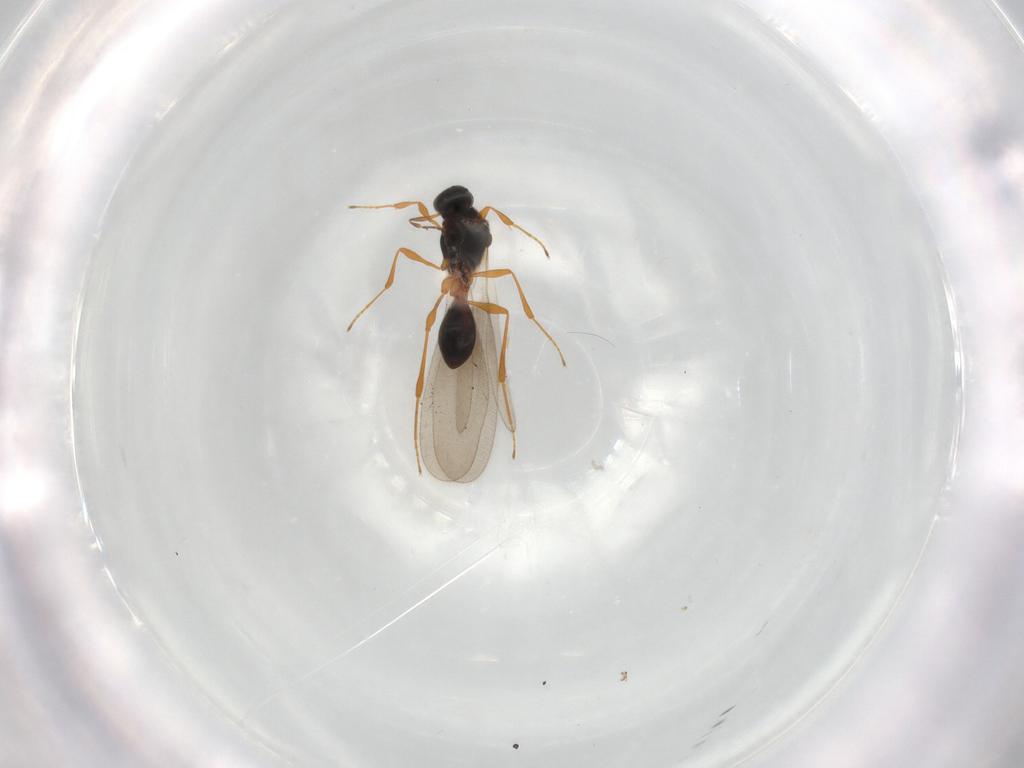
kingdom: Animalia
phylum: Arthropoda
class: Insecta
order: Hymenoptera
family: Platygastridae
